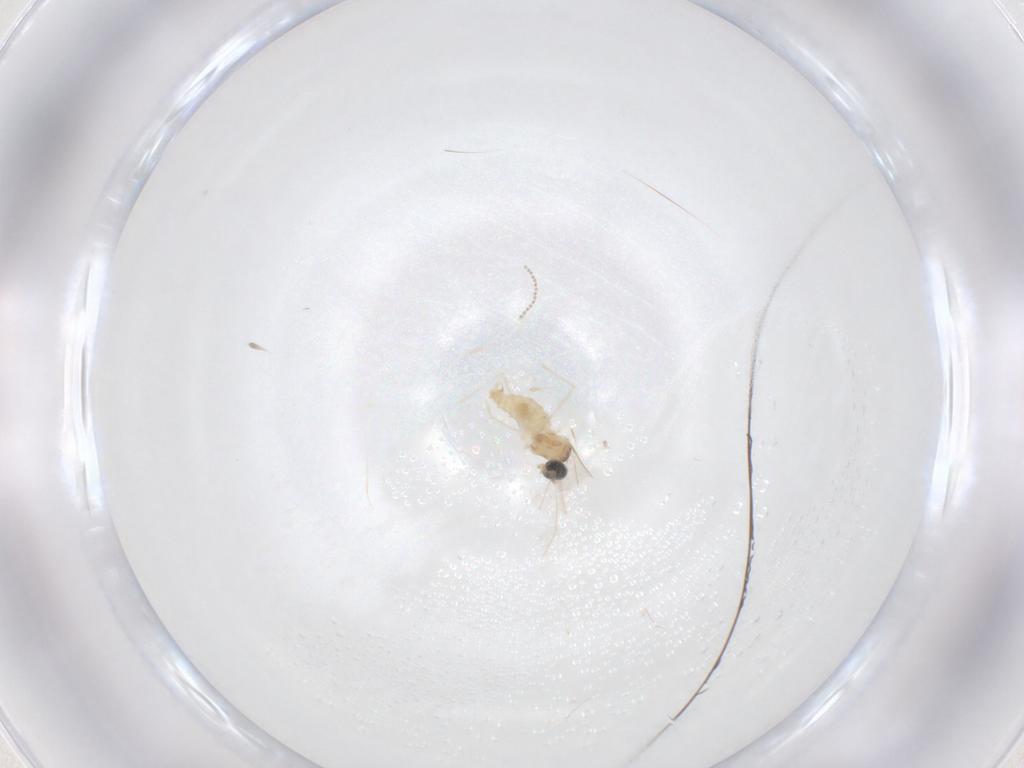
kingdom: Animalia
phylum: Arthropoda
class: Insecta
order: Diptera
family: Cecidomyiidae
